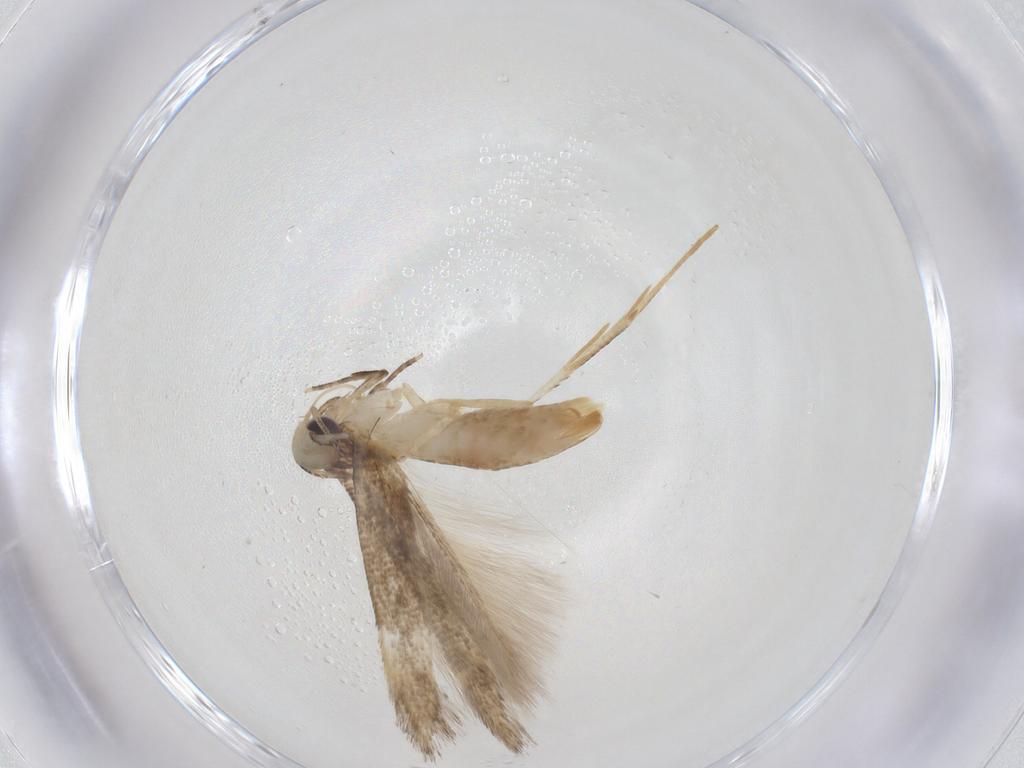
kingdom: Animalia
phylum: Arthropoda
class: Insecta
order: Lepidoptera
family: Cosmopterigidae
